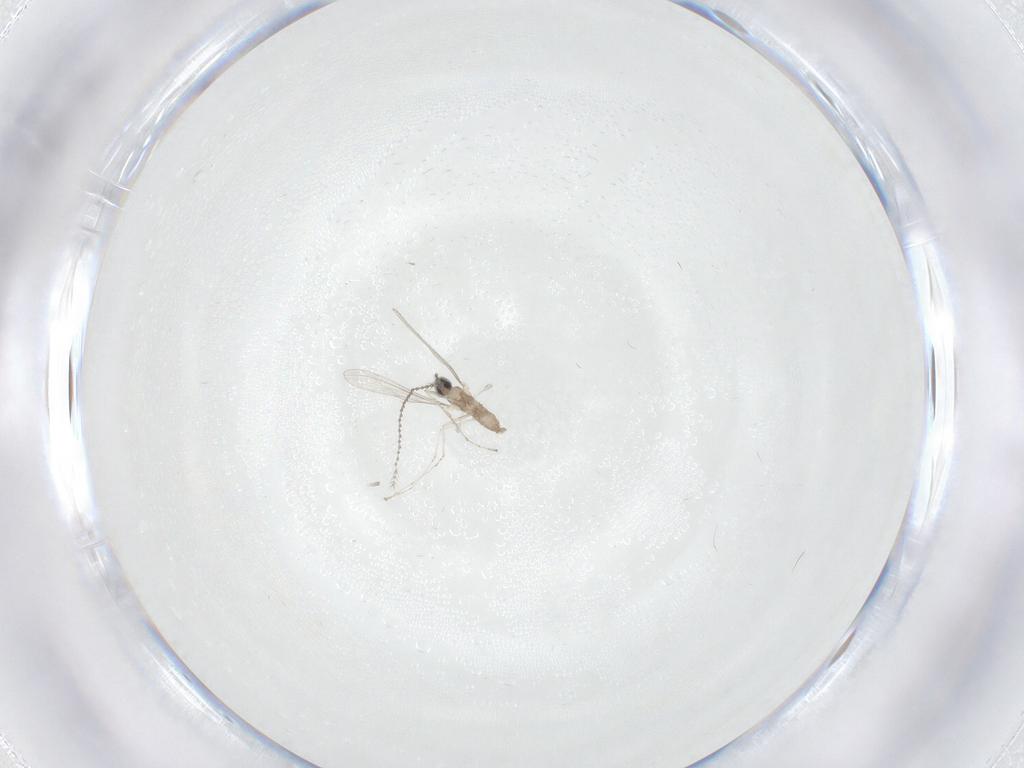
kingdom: Animalia
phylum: Arthropoda
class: Insecta
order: Diptera
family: Cecidomyiidae
